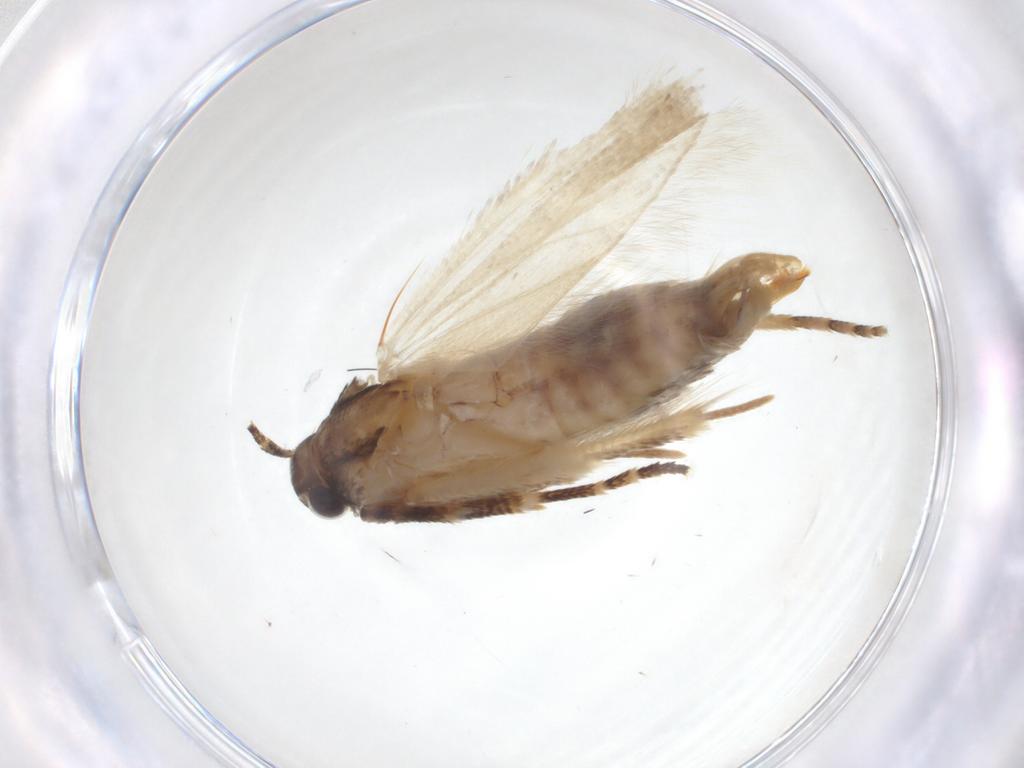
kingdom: Animalia
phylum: Arthropoda
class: Insecta
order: Lepidoptera
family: Gelechiidae
